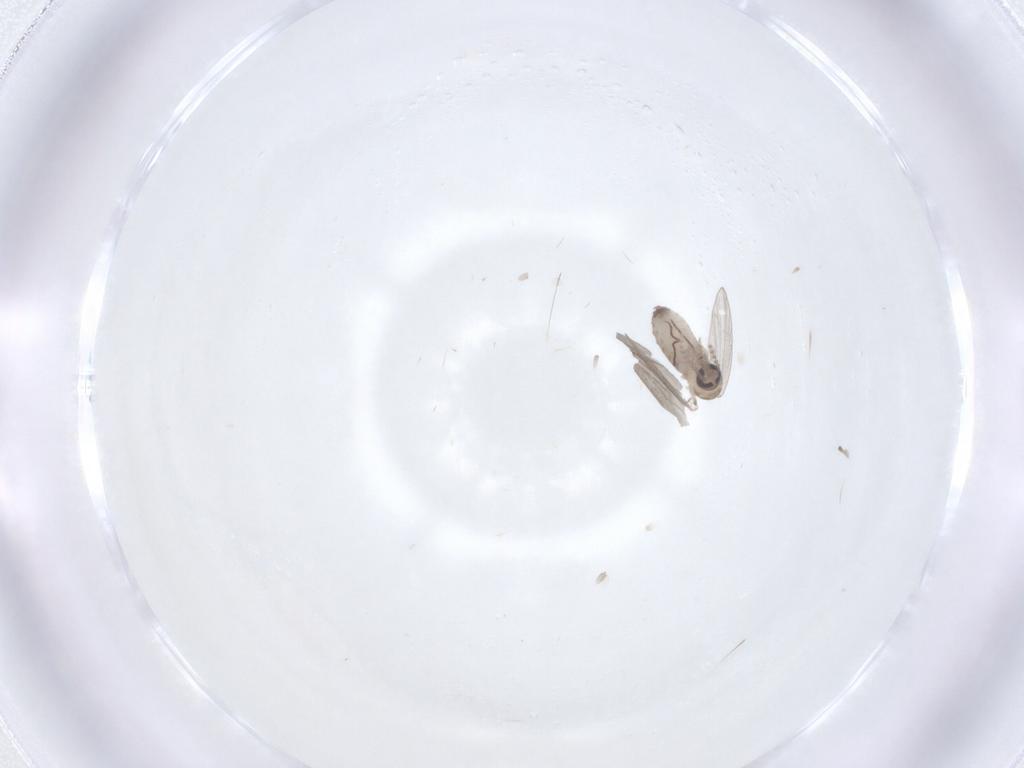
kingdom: Animalia
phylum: Arthropoda
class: Insecta
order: Diptera
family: Psychodidae
